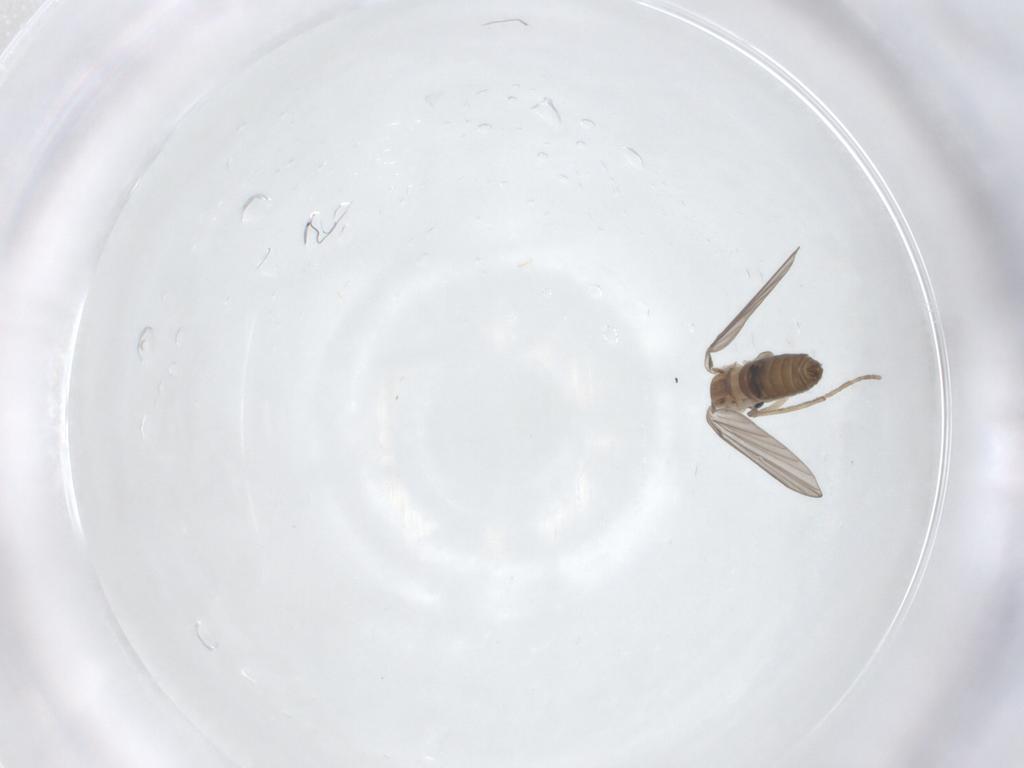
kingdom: Animalia
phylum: Arthropoda
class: Insecta
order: Diptera
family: Sciaridae
